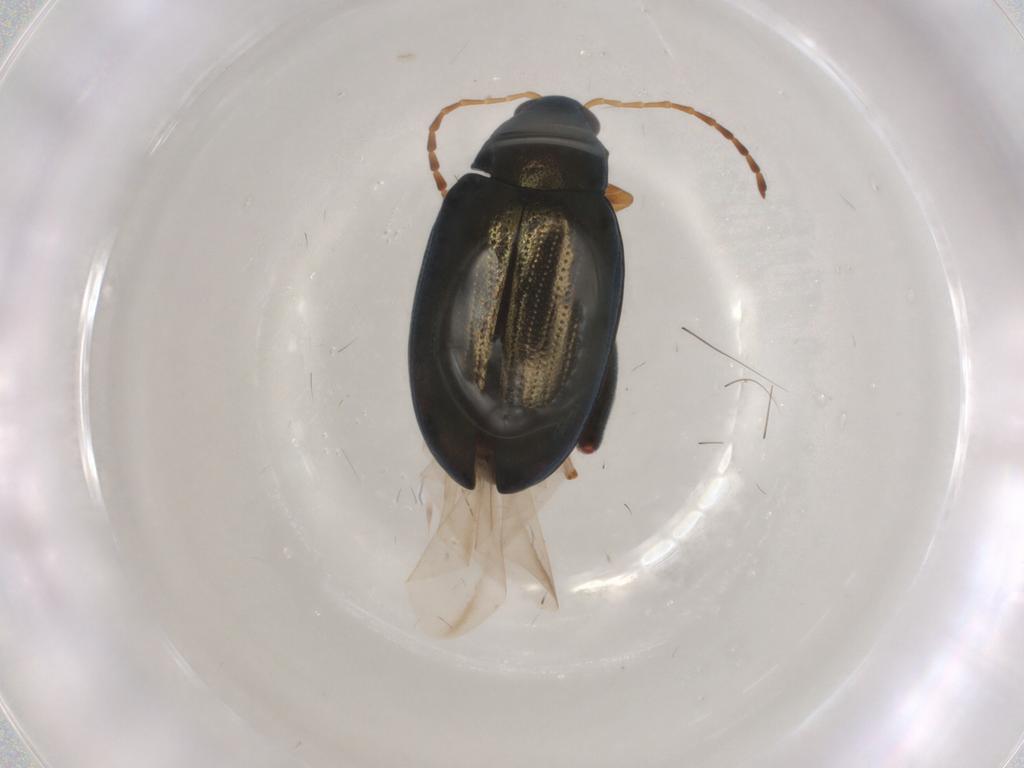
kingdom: Animalia
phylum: Arthropoda
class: Insecta
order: Coleoptera
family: Chrysomelidae
